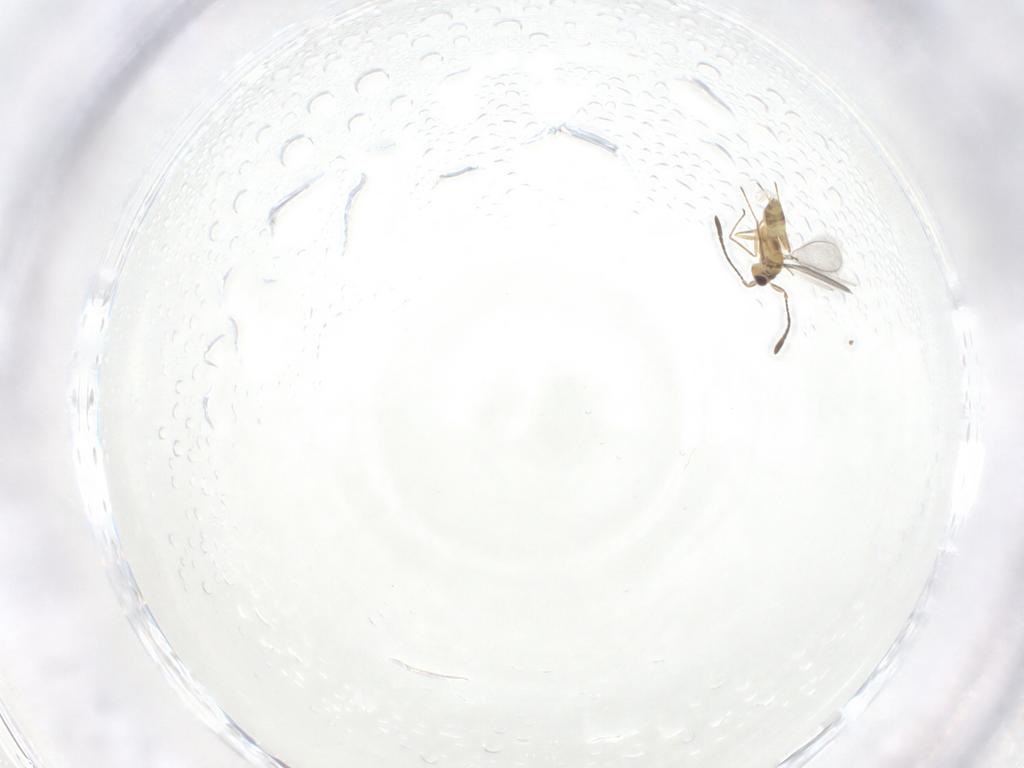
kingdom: Animalia
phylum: Arthropoda
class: Insecta
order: Hymenoptera
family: Mymaridae
